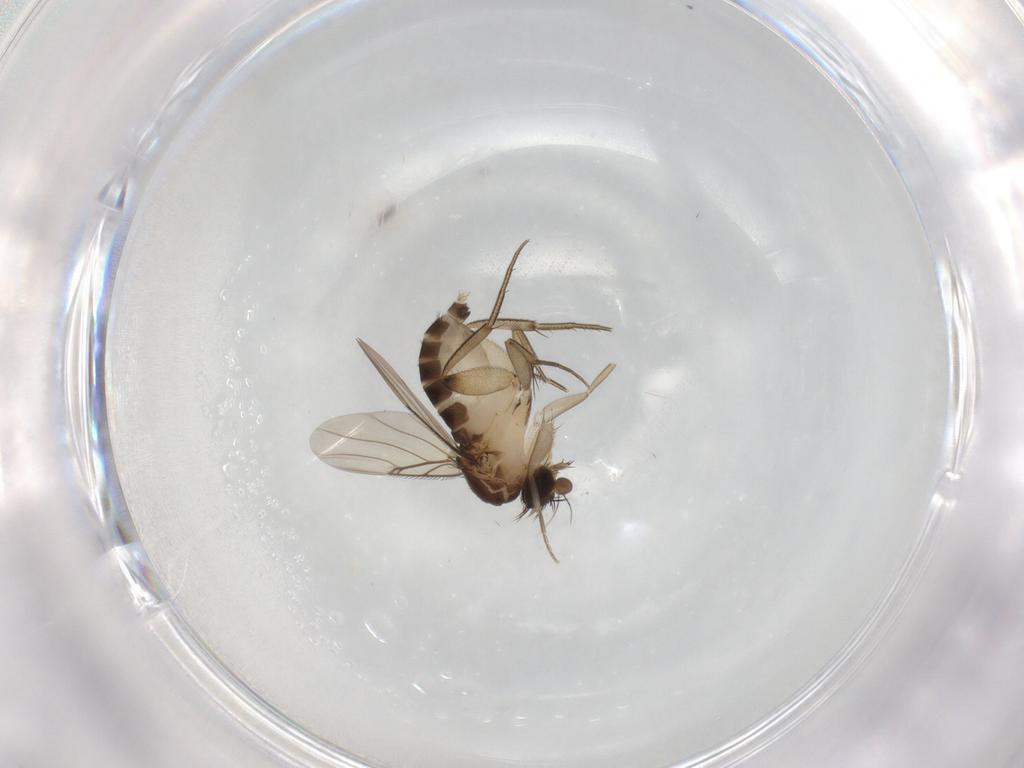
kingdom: Animalia
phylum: Arthropoda
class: Insecta
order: Diptera
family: Phoridae
